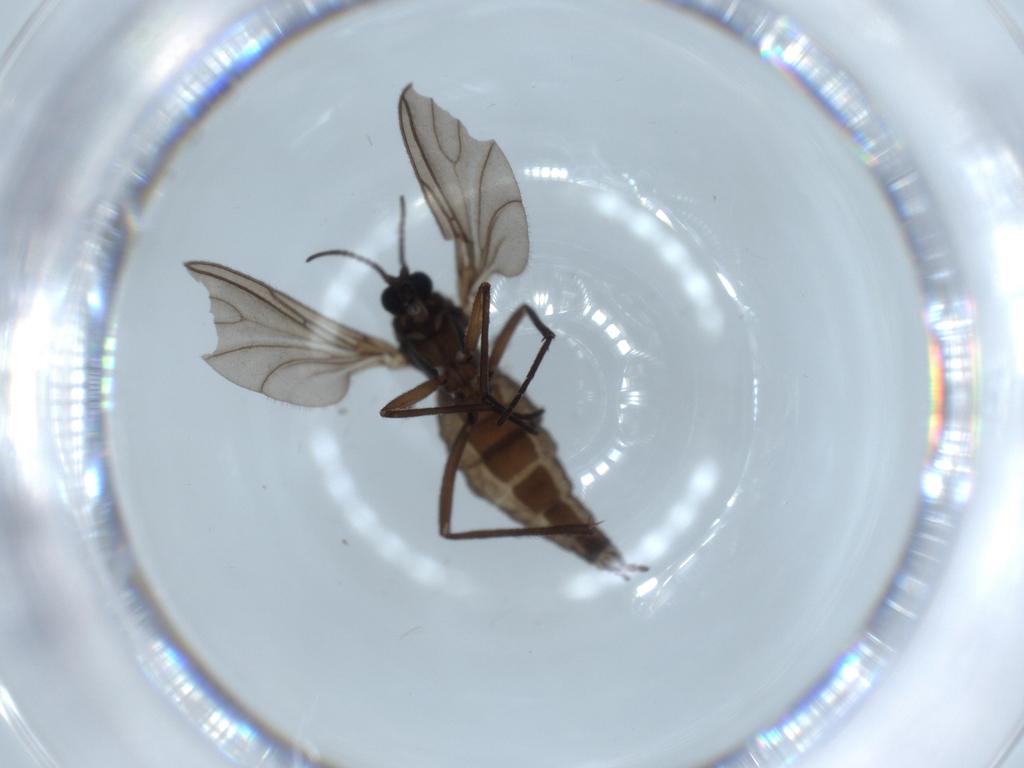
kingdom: Animalia
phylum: Arthropoda
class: Insecta
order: Diptera
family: Sciaridae
